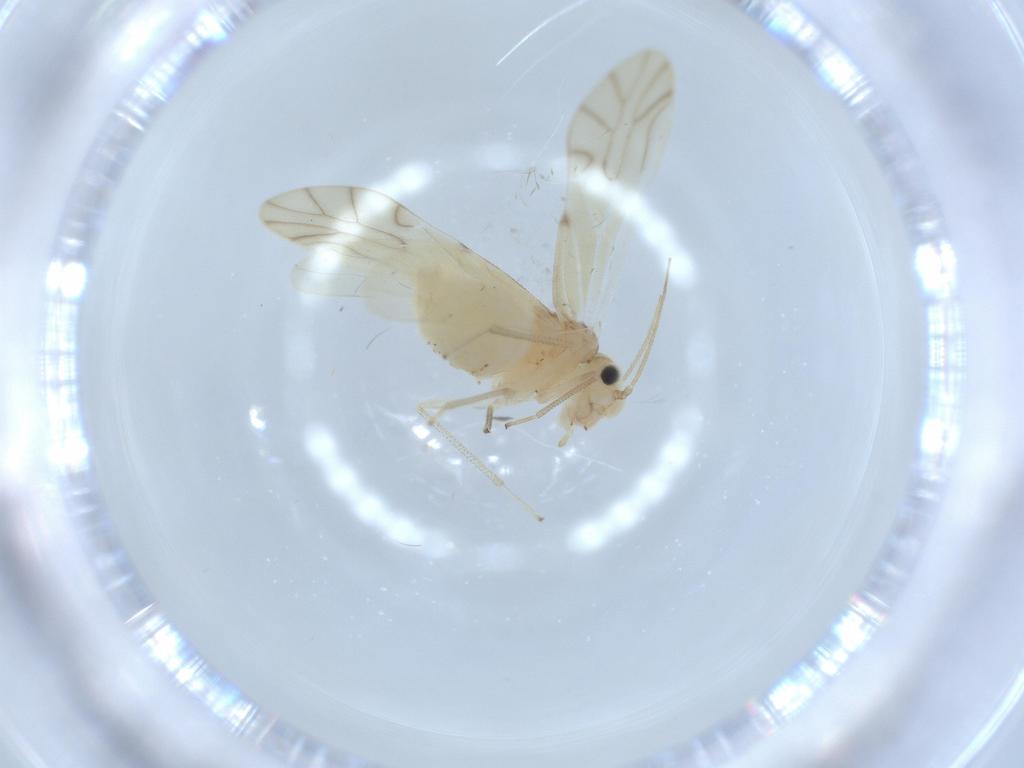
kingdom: Animalia
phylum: Arthropoda
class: Insecta
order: Psocodea
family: Caeciliusidae
